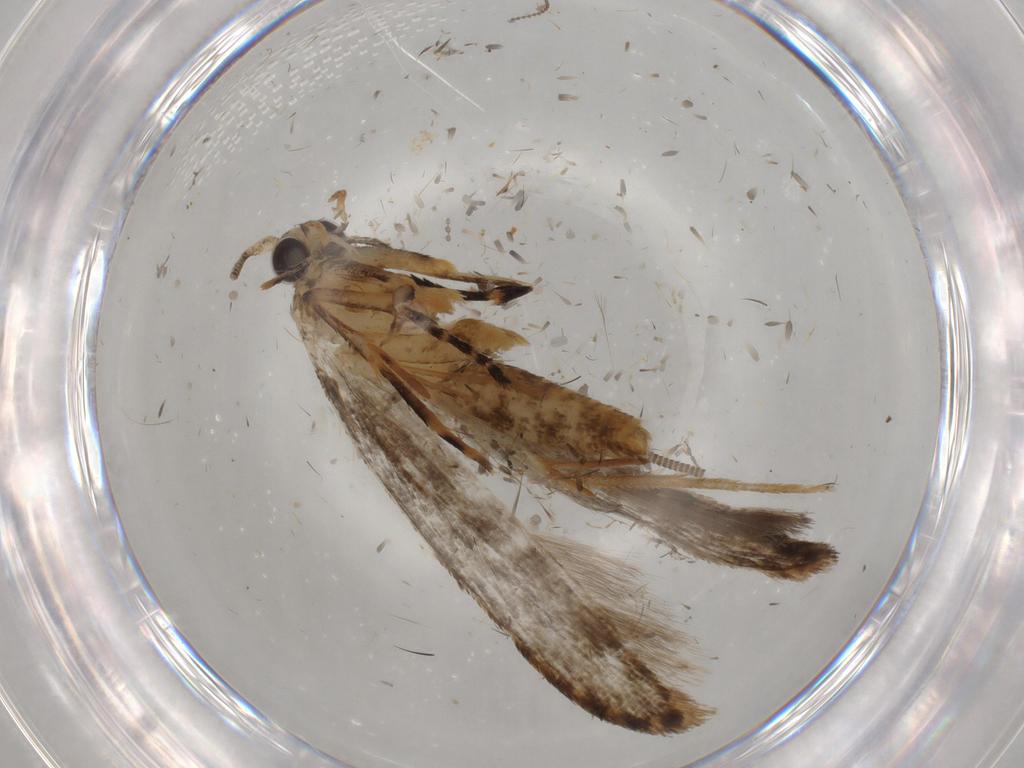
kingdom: Animalia
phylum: Arthropoda
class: Insecta
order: Lepidoptera
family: Tineidae
